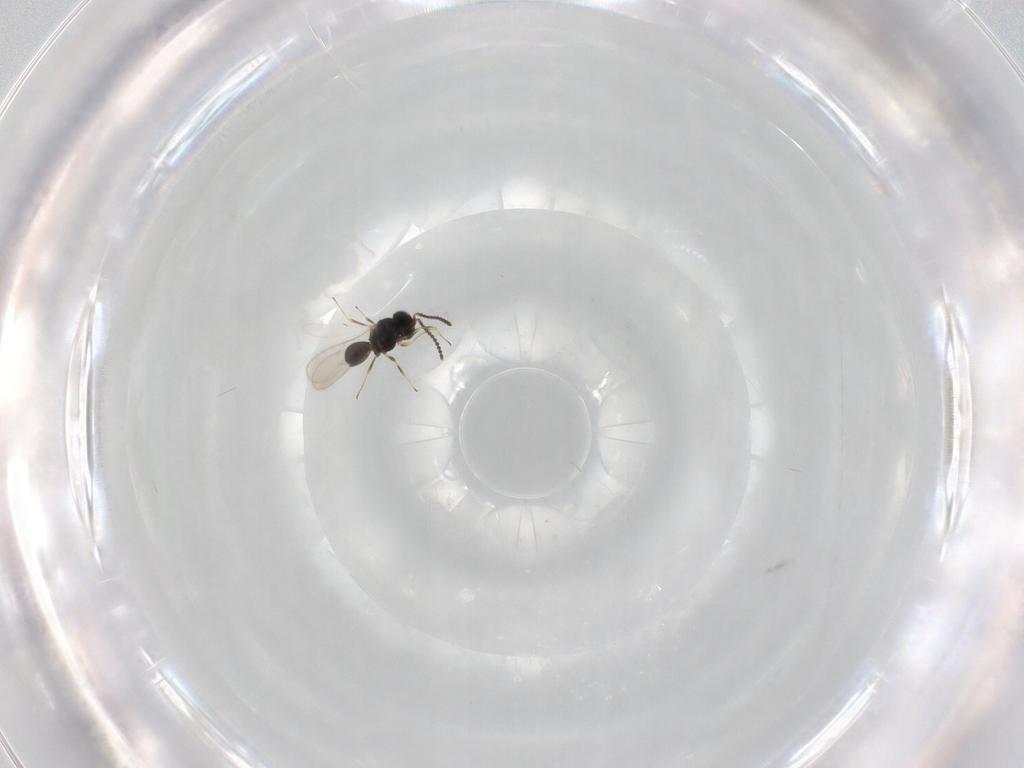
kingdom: Animalia
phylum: Arthropoda
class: Insecta
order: Hymenoptera
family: Scelionidae
